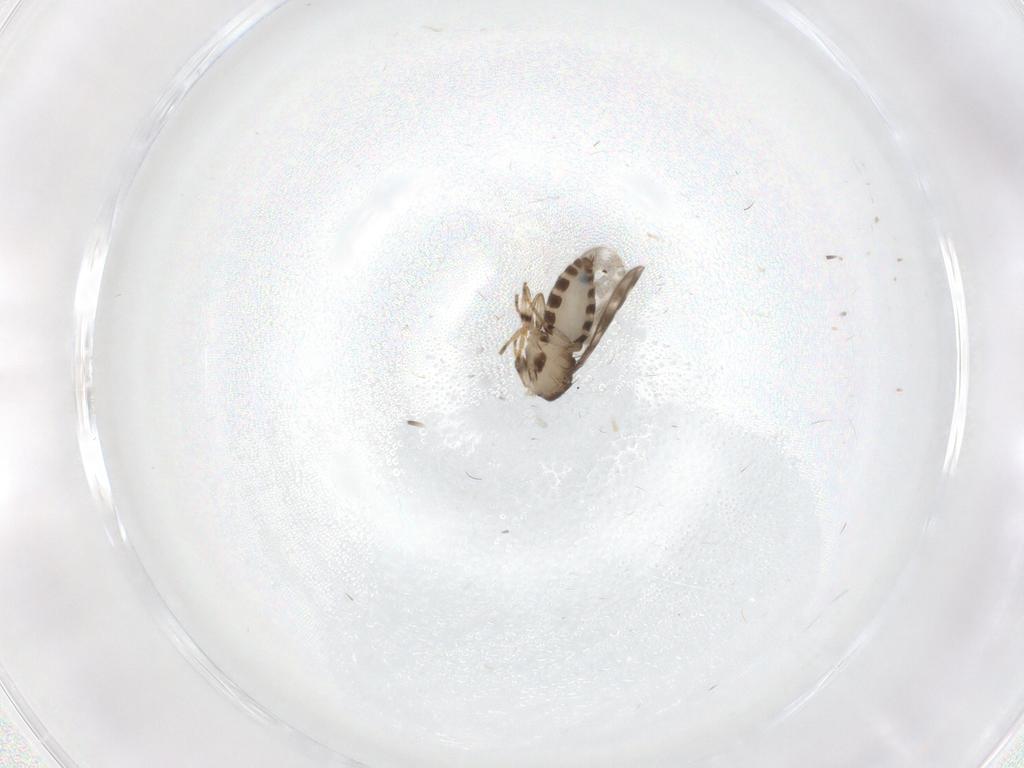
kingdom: Animalia
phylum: Arthropoda
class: Insecta
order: Diptera
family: Sphaeroceridae
